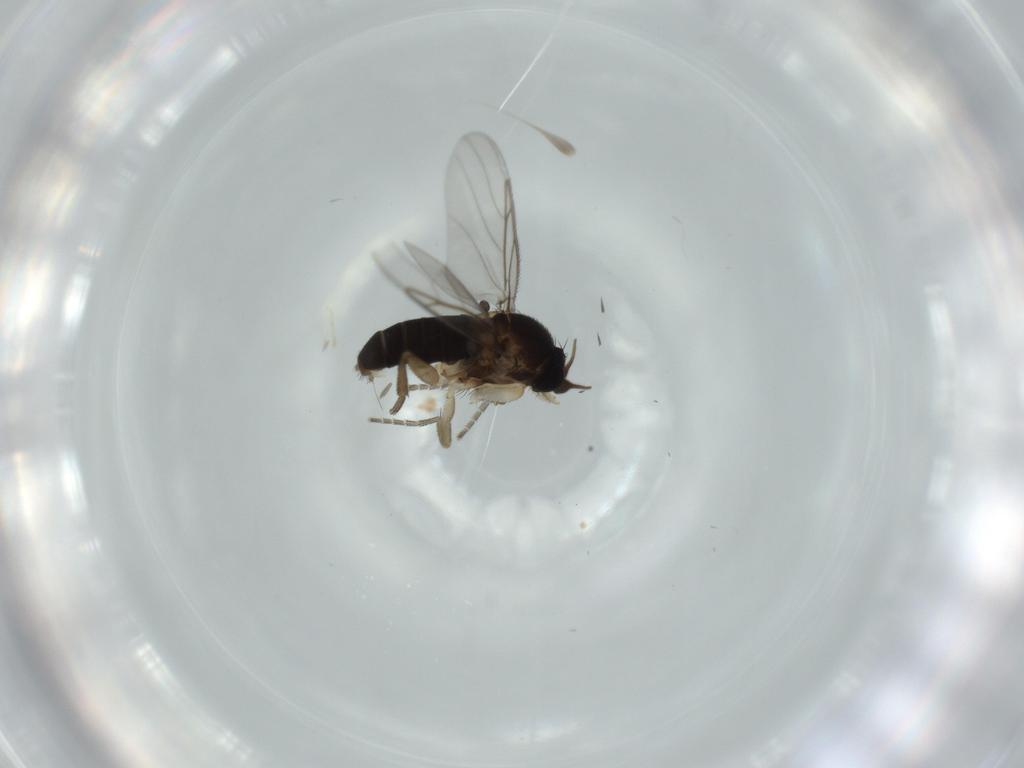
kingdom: Animalia
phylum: Arthropoda
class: Insecta
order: Diptera
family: Phoridae
